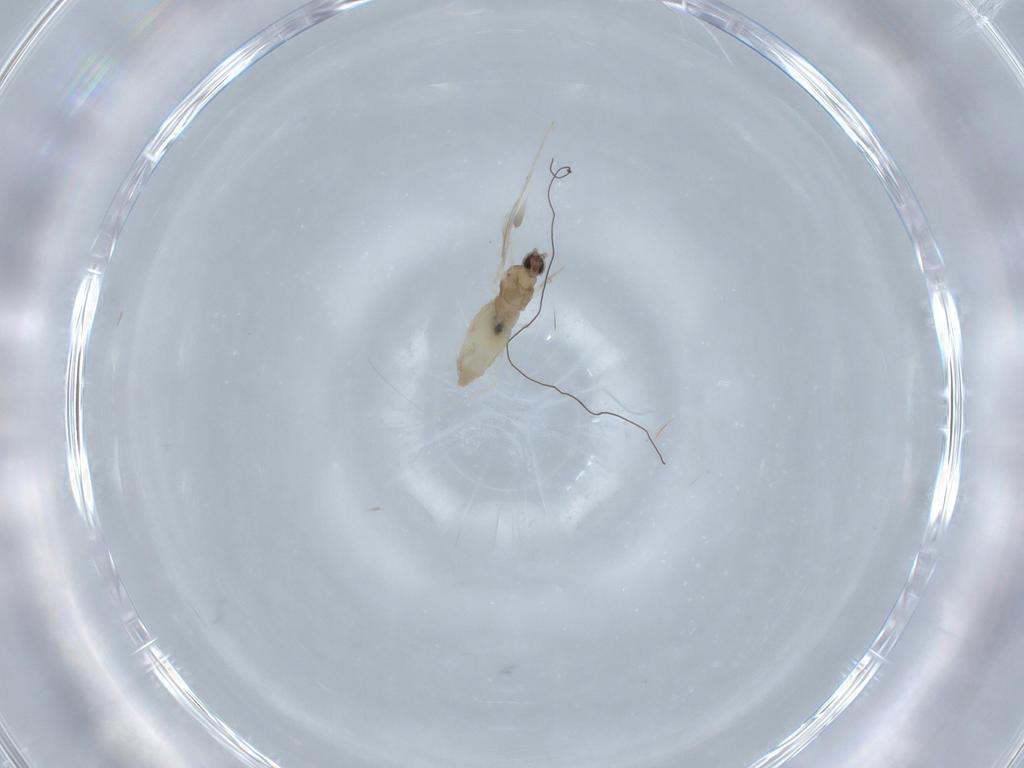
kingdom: Animalia
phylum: Arthropoda
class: Insecta
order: Diptera
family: Cecidomyiidae
